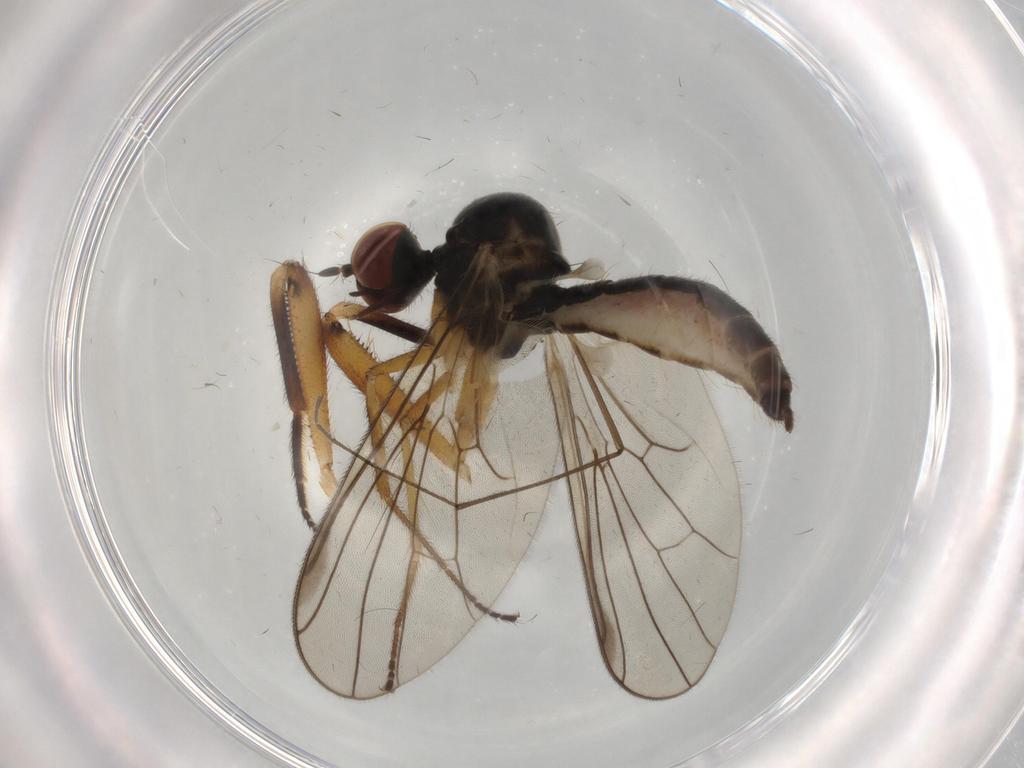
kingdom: Animalia
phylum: Arthropoda
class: Insecta
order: Diptera
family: Hybotidae
